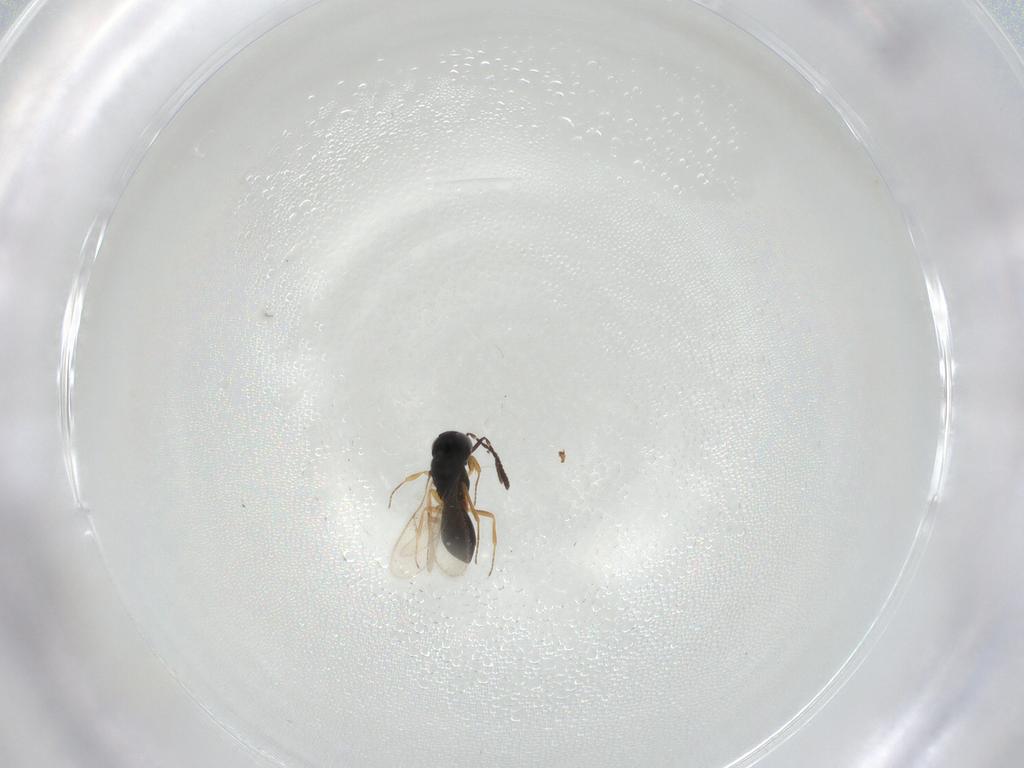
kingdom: Animalia
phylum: Arthropoda
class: Insecta
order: Hymenoptera
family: Scelionidae
